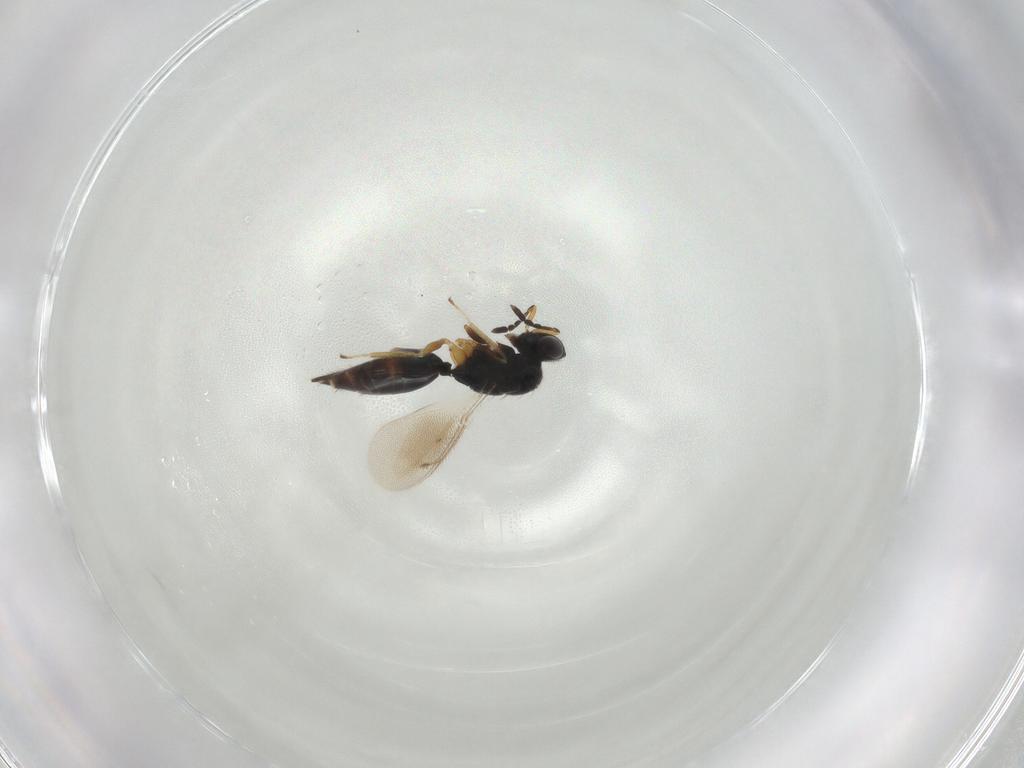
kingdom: Animalia
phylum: Arthropoda
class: Insecta
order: Hymenoptera
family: Eulophidae
